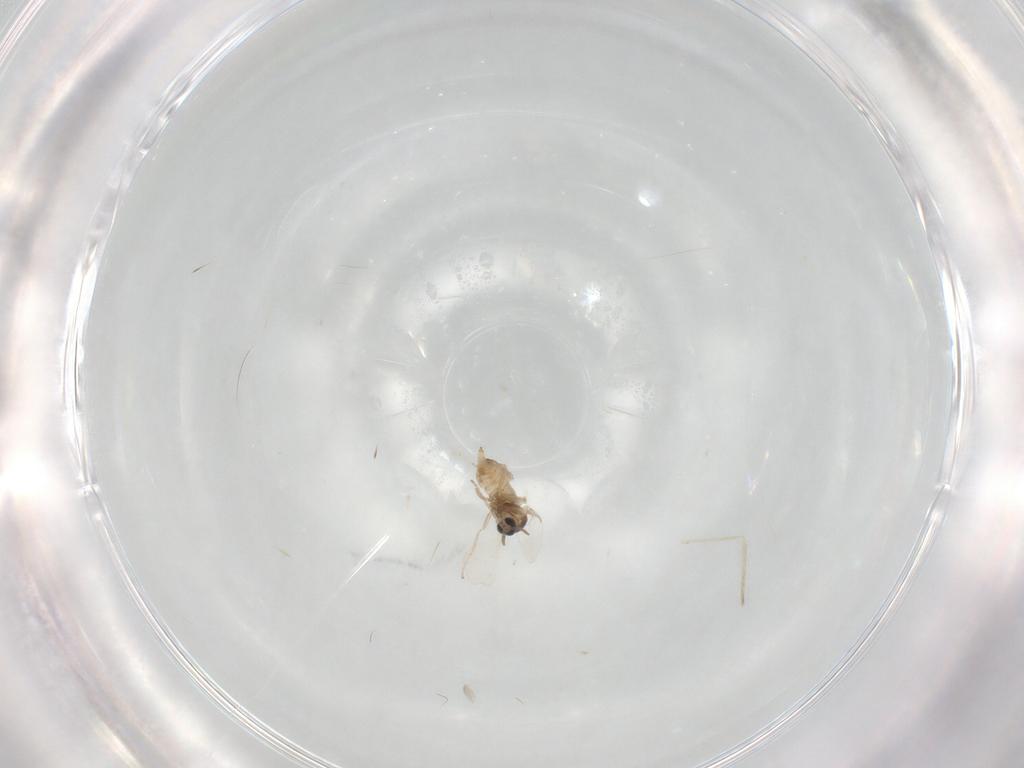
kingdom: Animalia
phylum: Arthropoda
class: Insecta
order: Diptera
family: Cecidomyiidae
